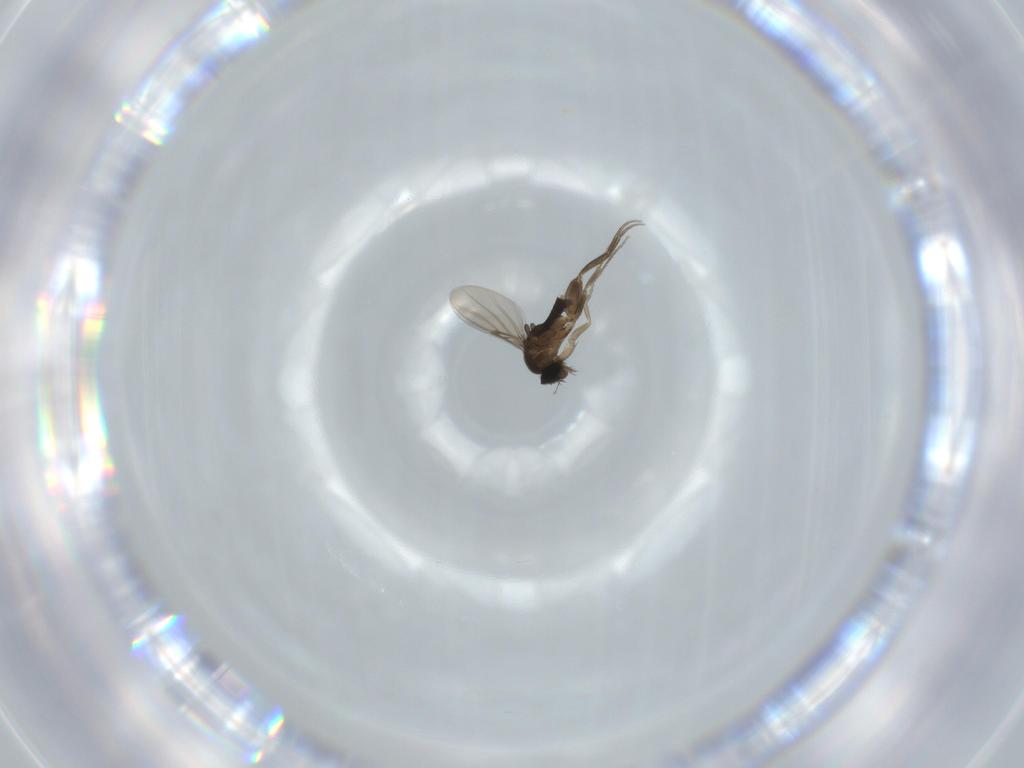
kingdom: Animalia
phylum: Arthropoda
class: Insecta
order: Diptera
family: Phoridae
